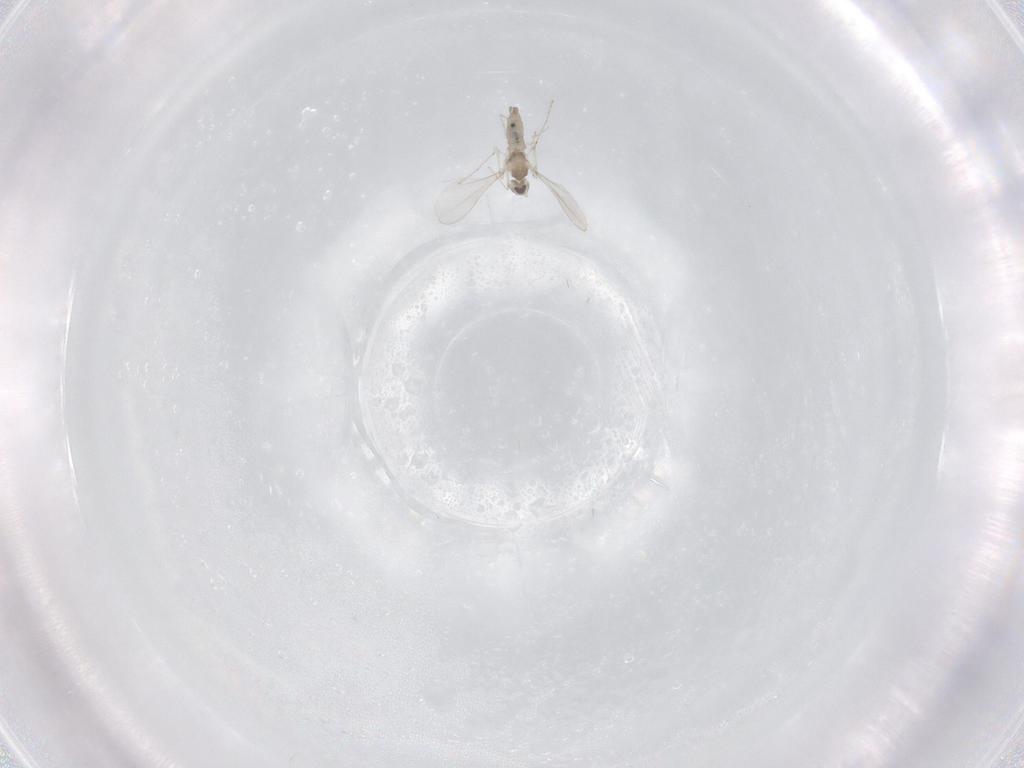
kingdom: Animalia
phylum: Arthropoda
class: Insecta
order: Diptera
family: Cecidomyiidae
